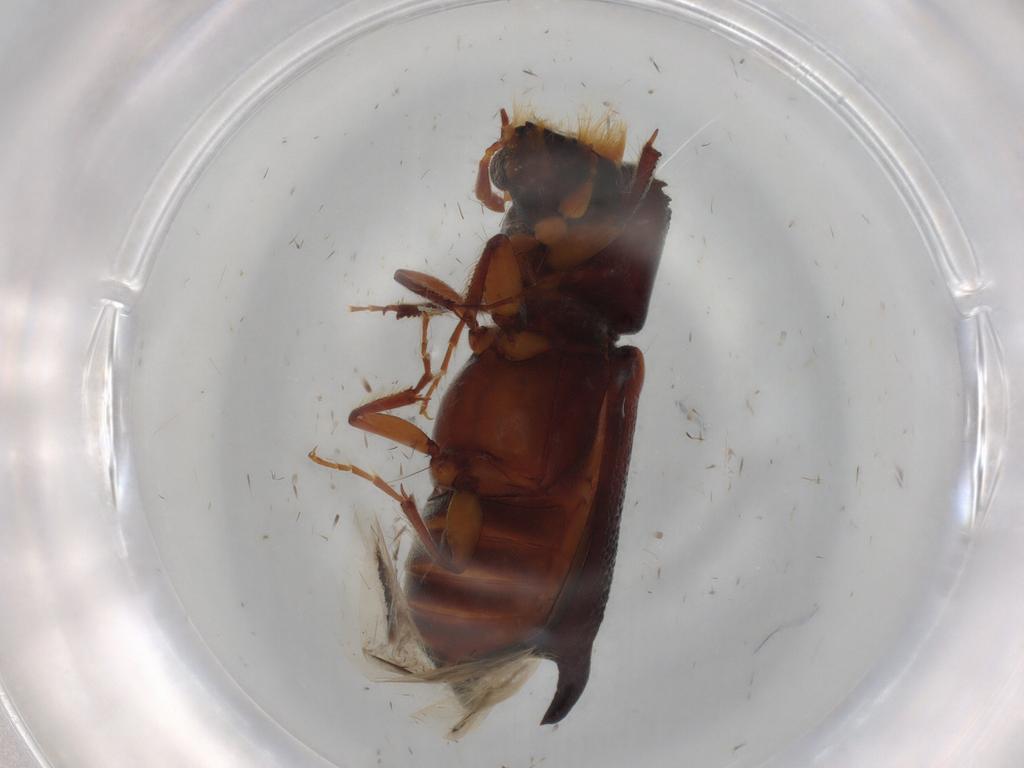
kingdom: Animalia
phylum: Arthropoda
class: Insecta
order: Coleoptera
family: Bostrichidae
